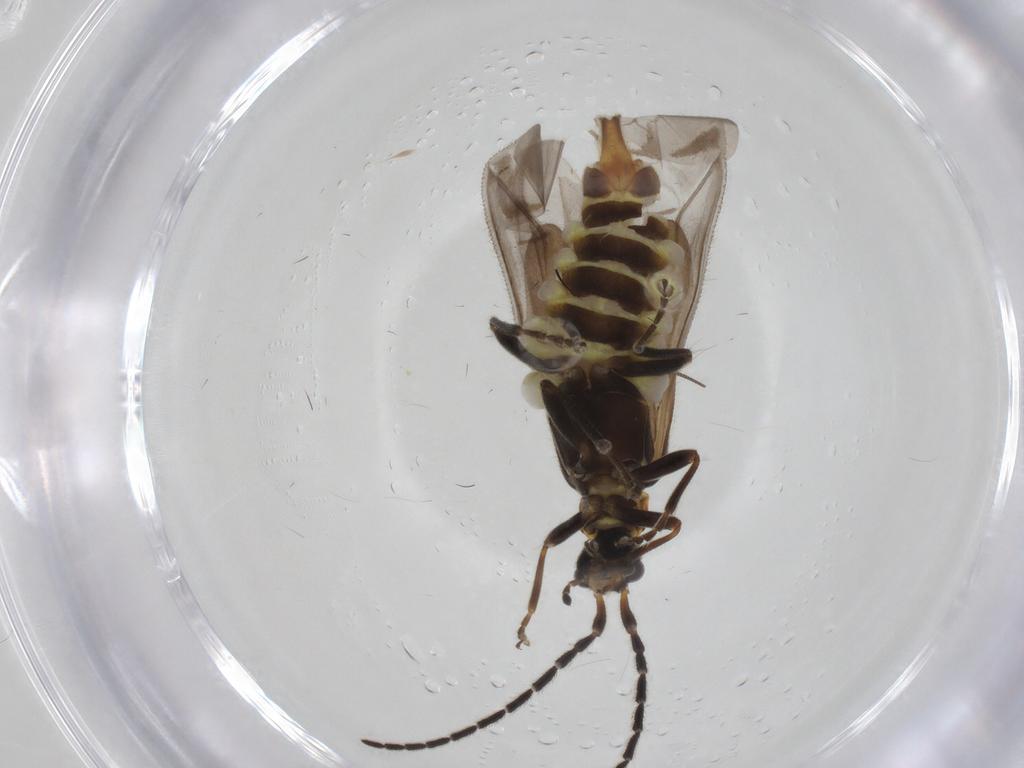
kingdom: Animalia
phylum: Arthropoda
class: Insecta
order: Coleoptera
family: Cantharidae
